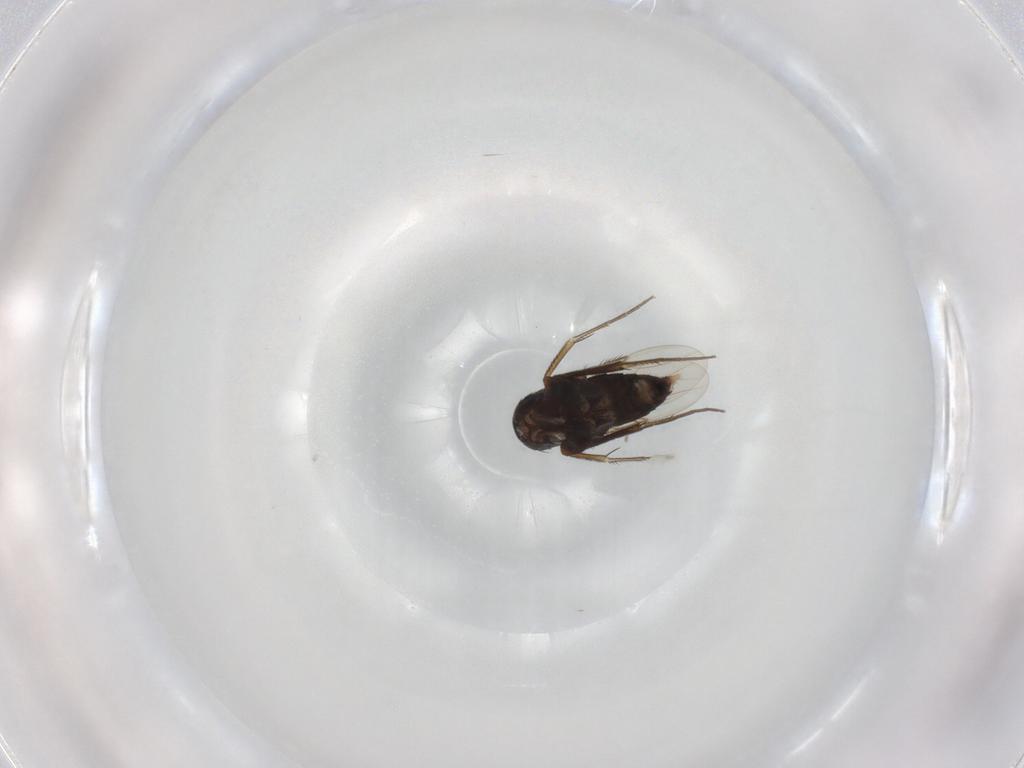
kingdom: Animalia
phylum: Arthropoda
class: Insecta
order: Diptera
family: Phoridae
